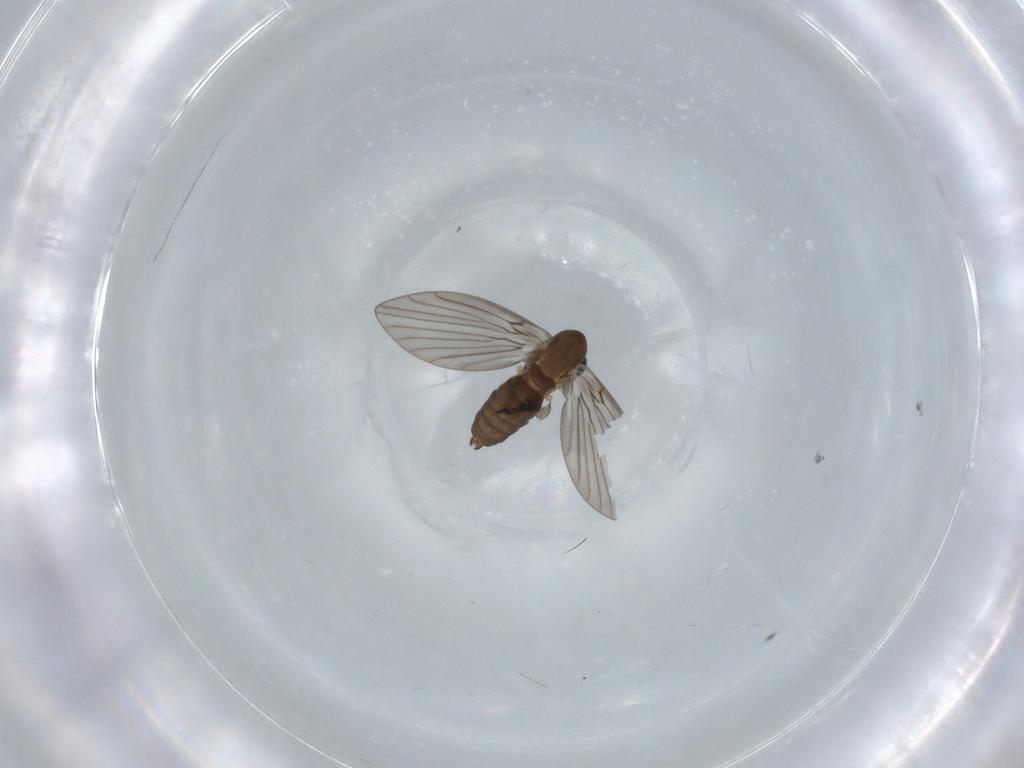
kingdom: Animalia
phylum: Arthropoda
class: Insecta
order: Diptera
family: Psychodidae
